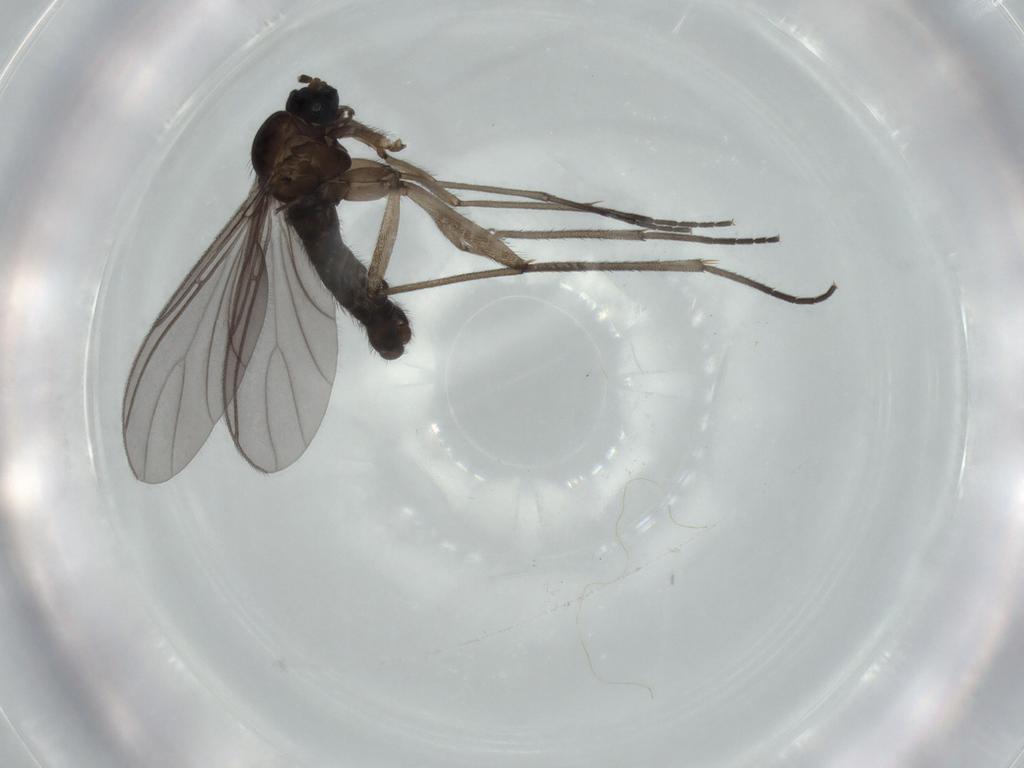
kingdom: Animalia
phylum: Arthropoda
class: Insecta
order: Diptera
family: Sciaridae
